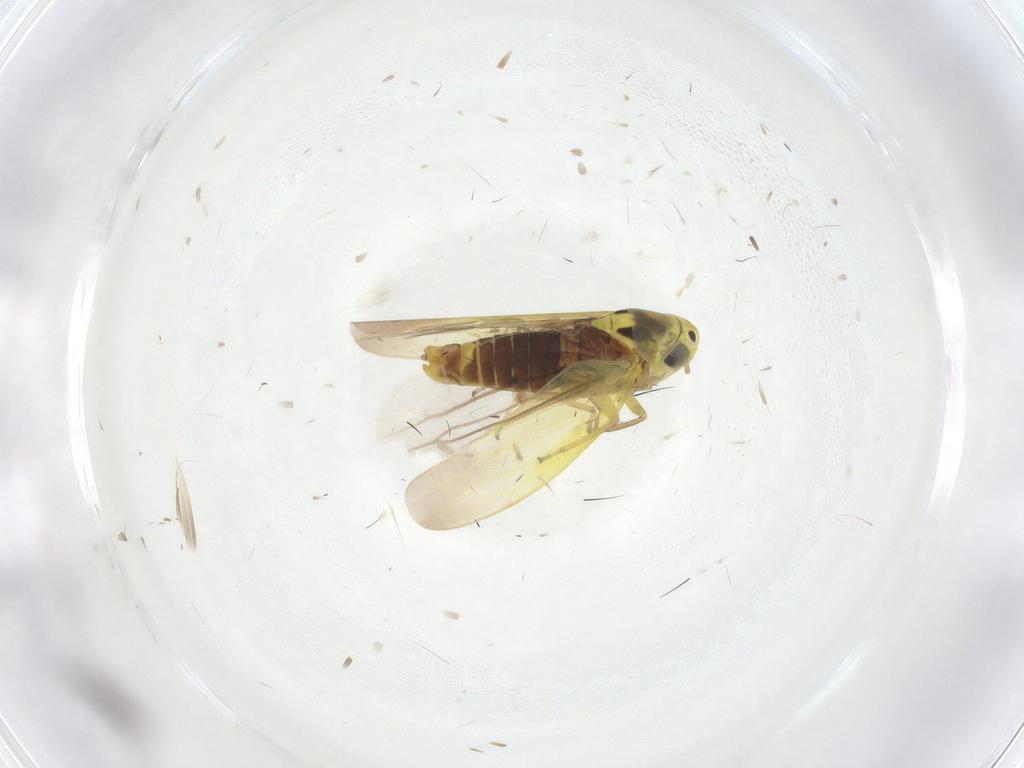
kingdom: Animalia
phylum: Arthropoda
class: Insecta
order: Hemiptera
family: Cicadellidae
